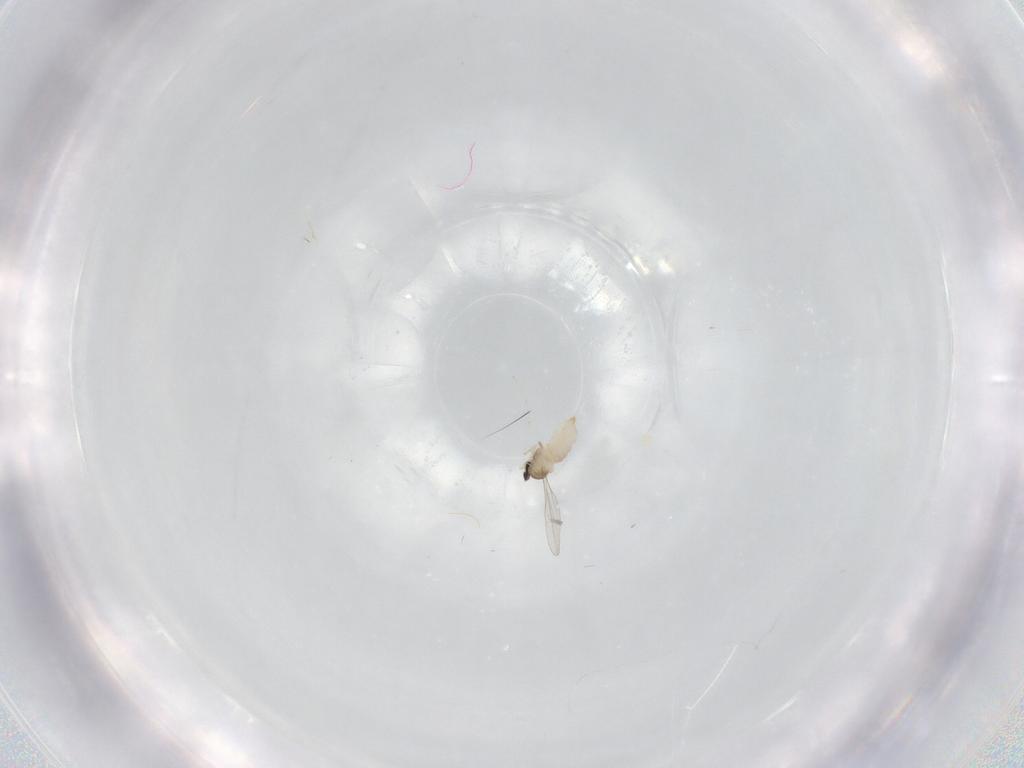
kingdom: Animalia
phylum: Arthropoda
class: Insecta
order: Diptera
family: Cecidomyiidae
